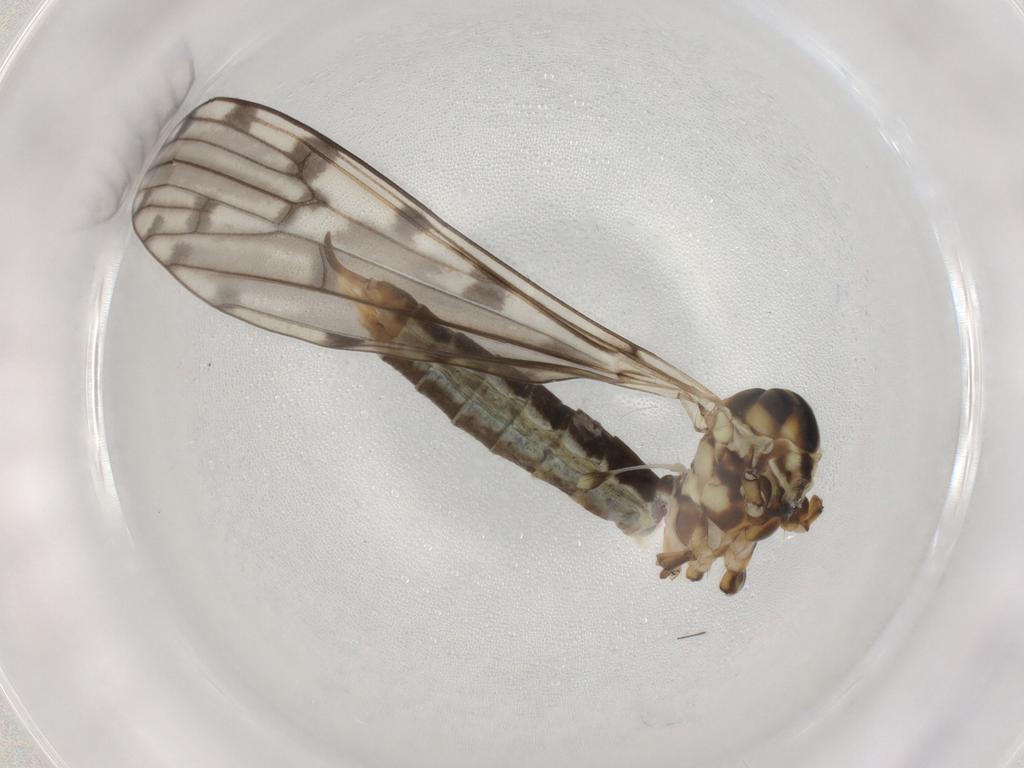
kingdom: Animalia
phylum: Arthropoda
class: Insecta
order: Diptera
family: Limoniidae
